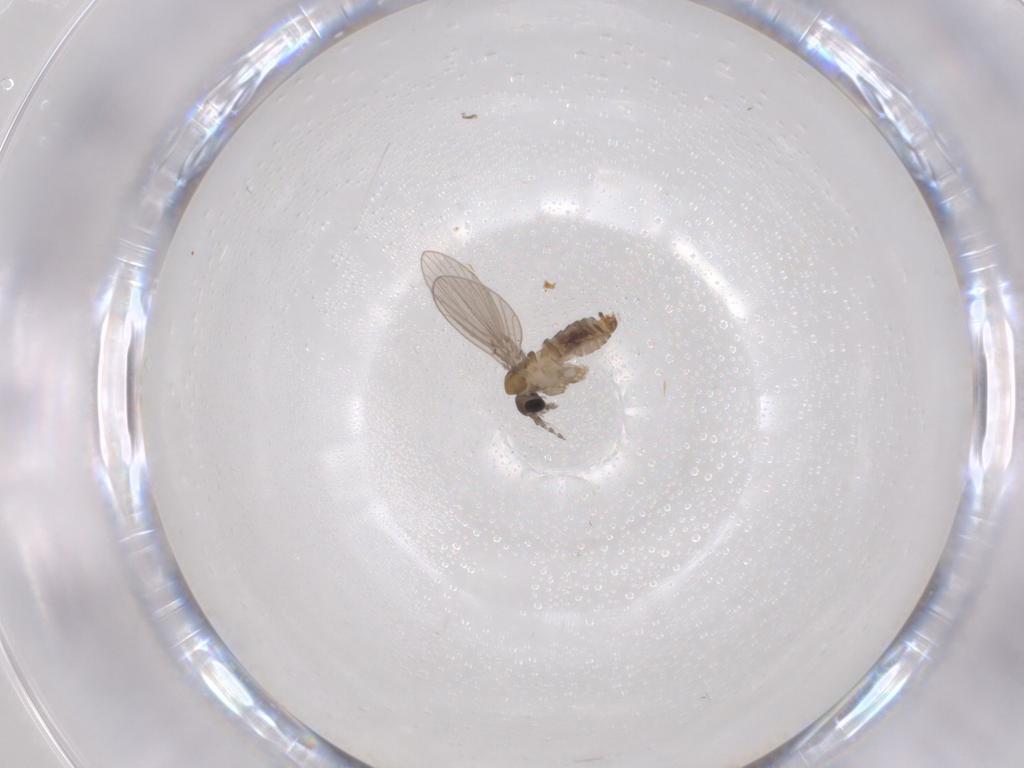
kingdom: Animalia
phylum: Arthropoda
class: Insecta
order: Diptera
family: Psychodidae
